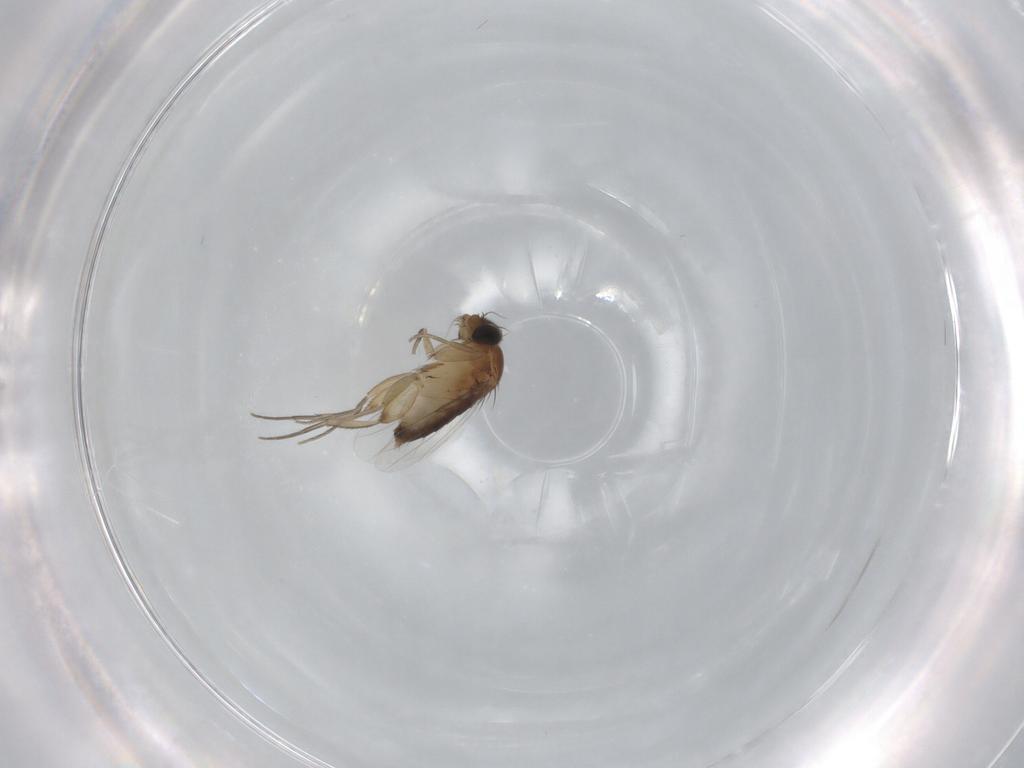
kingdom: Animalia
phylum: Arthropoda
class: Insecta
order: Diptera
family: Phoridae
